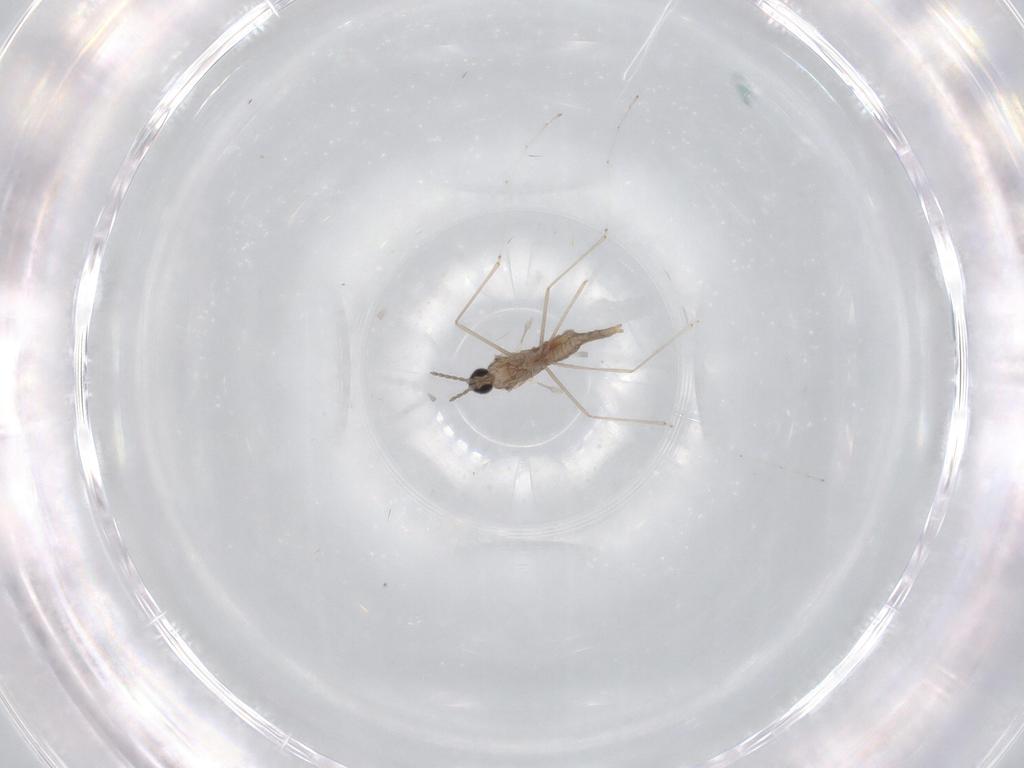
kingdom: Animalia
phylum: Arthropoda
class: Insecta
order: Diptera
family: Cecidomyiidae
